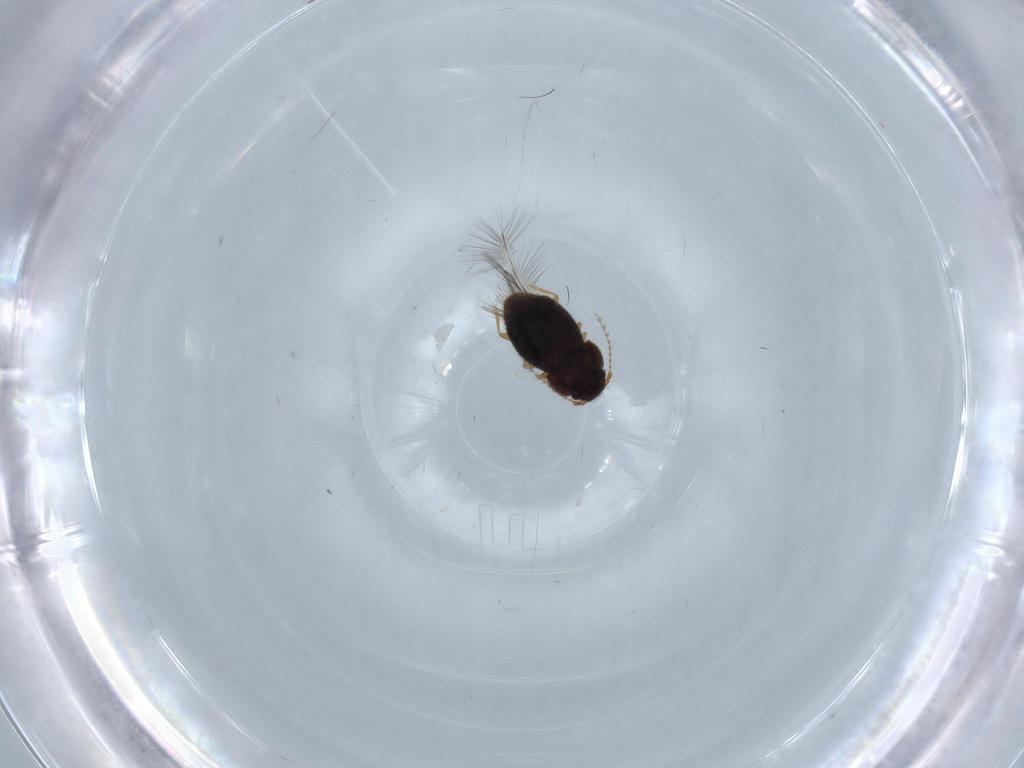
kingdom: Animalia
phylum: Arthropoda
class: Insecta
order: Coleoptera
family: Ptiliidae
